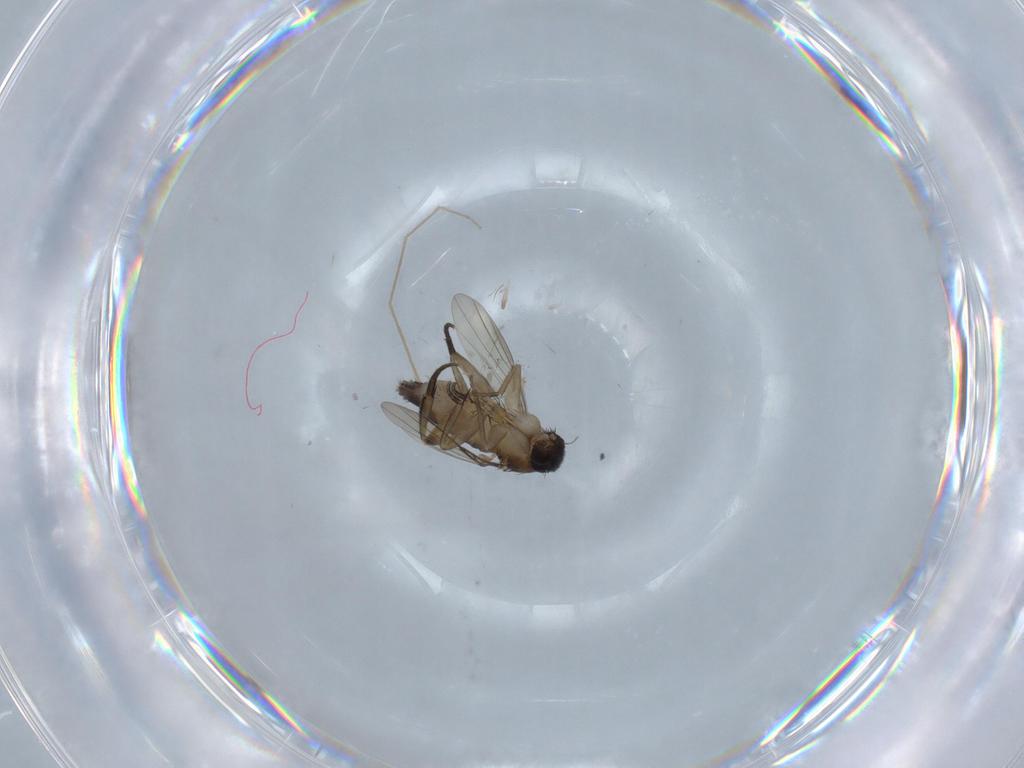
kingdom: Animalia
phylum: Arthropoda
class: Insecta
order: Diptera
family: Phoridae
